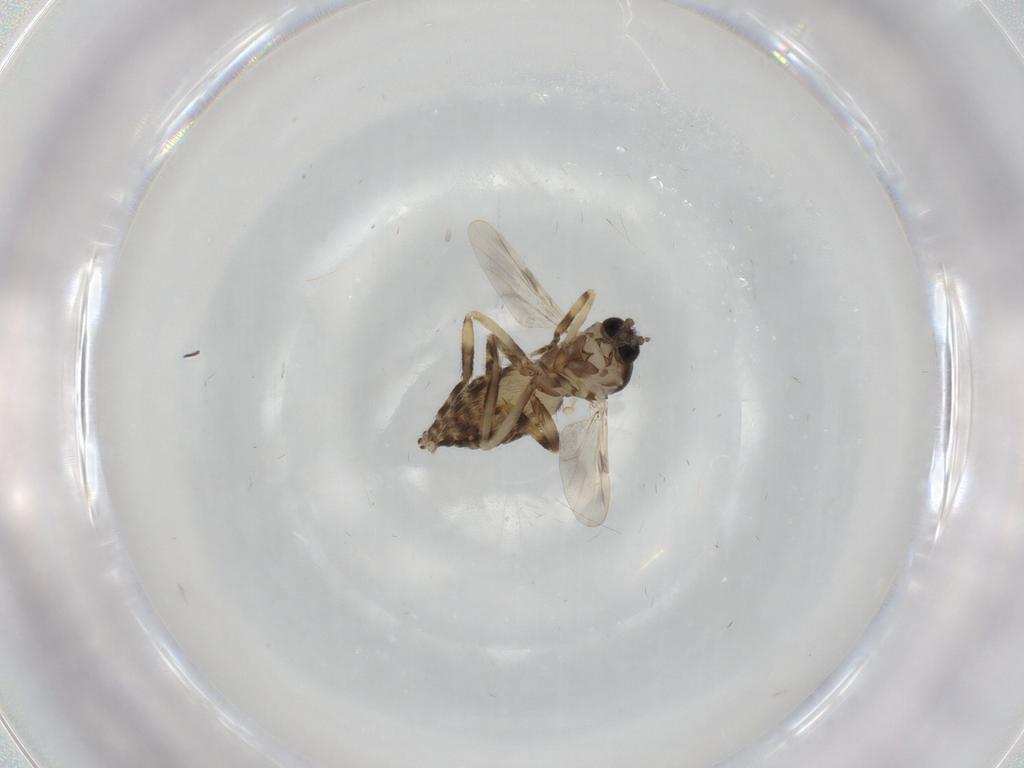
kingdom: Animalia
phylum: Arthropoda
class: Insecta
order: Diptera
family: Ceratopogonidae
